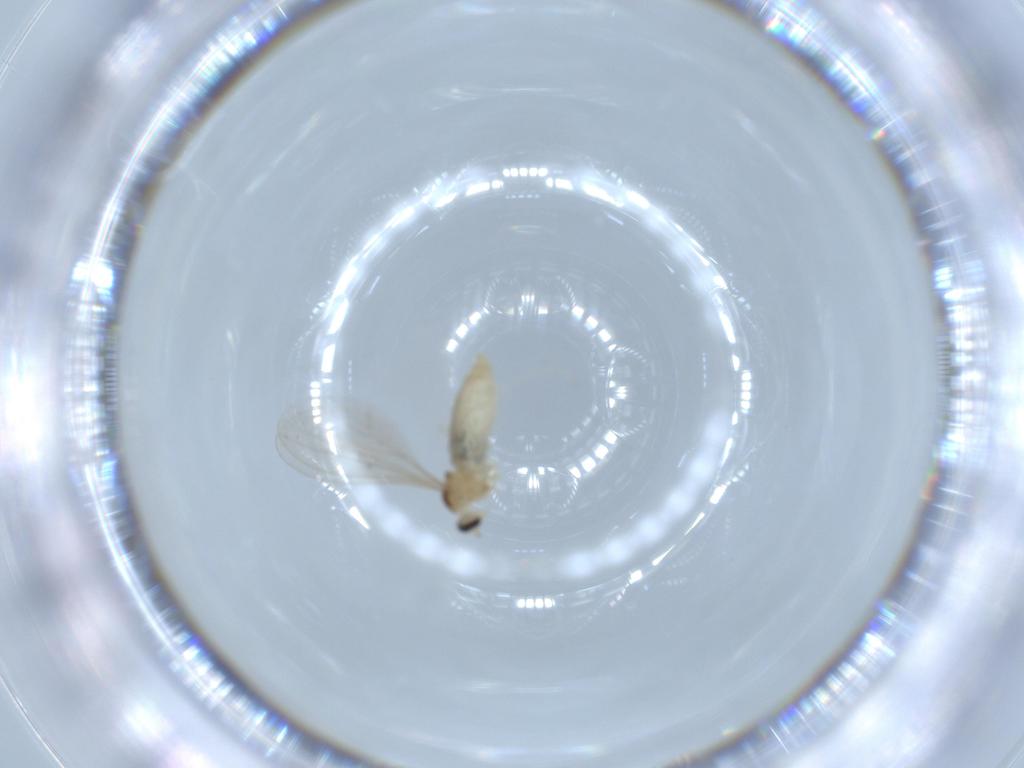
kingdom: Animalia
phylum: Arthropoda
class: Insecta
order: Diptera
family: Cecidomyiidae
